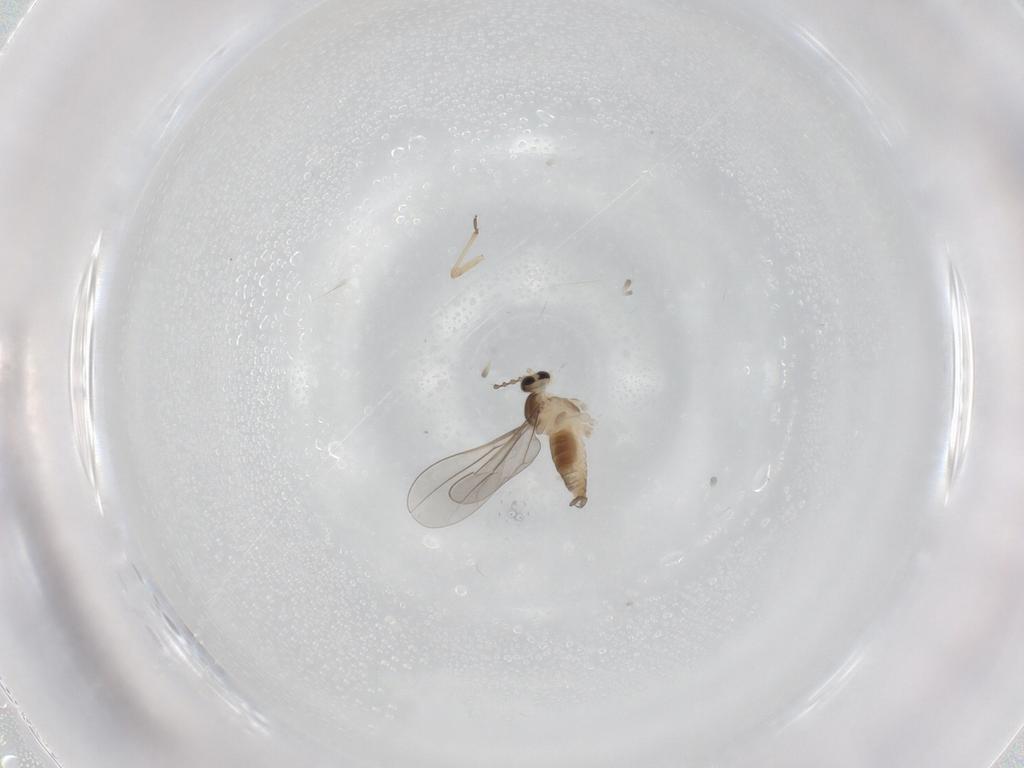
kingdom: Animalia
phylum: Arthropoda
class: Insecta
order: Diptera
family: Cecidomyiidae
